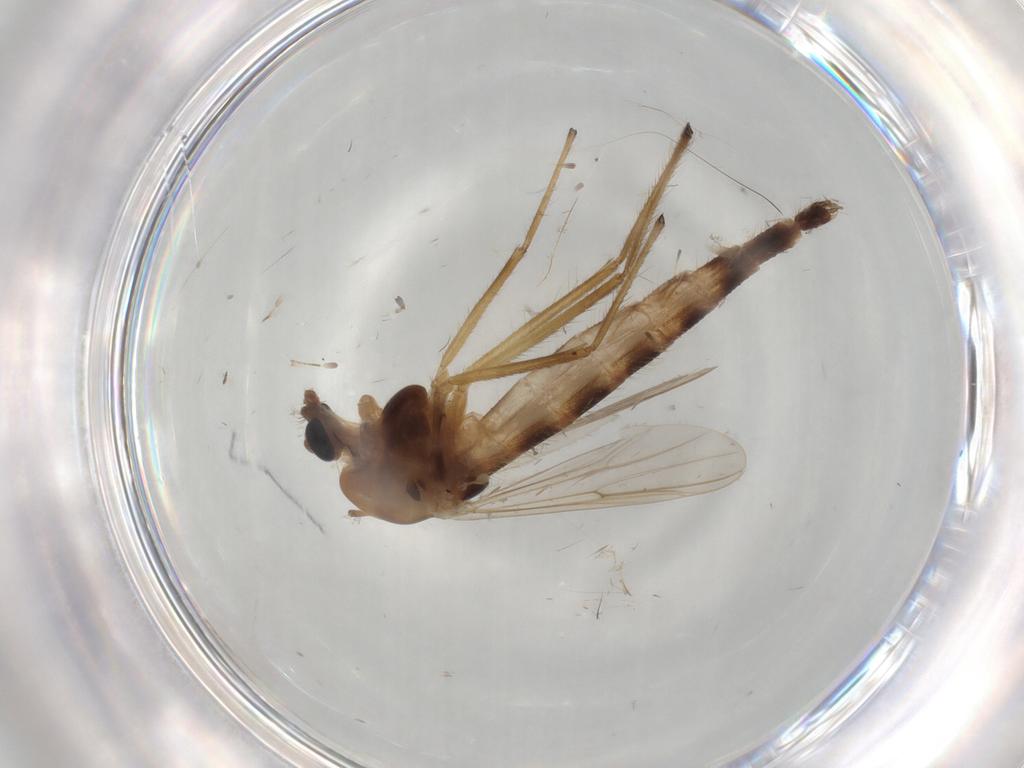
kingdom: Animalia
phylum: Arthropoda
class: Insecta
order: Diptera
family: Chironomidae
